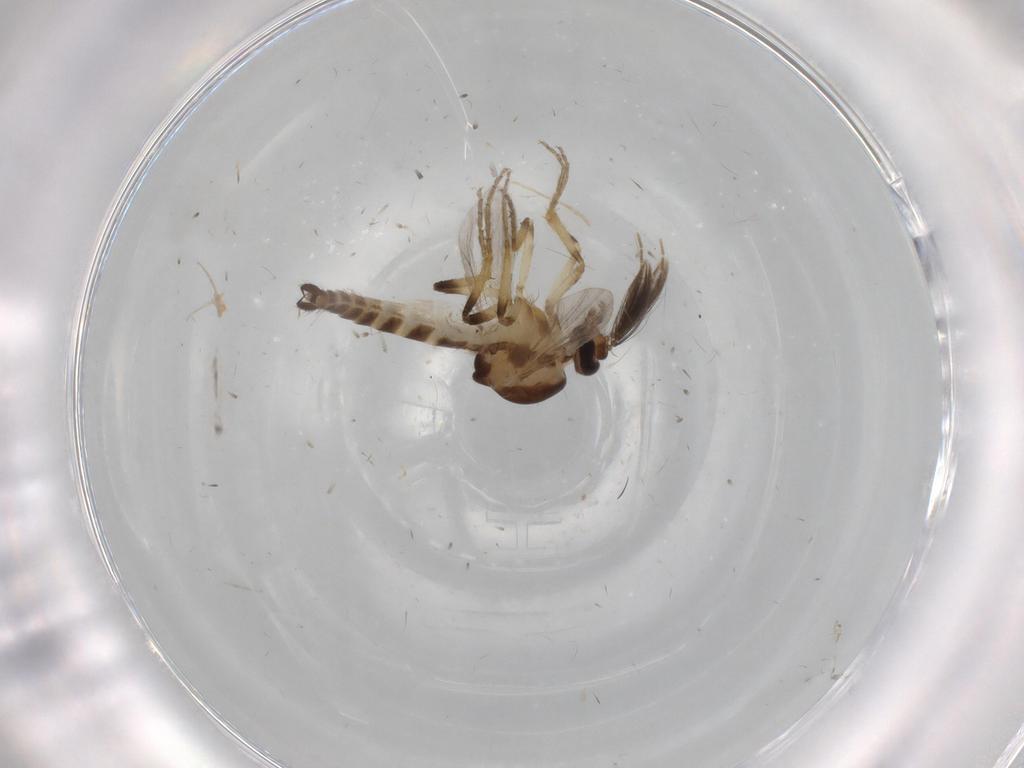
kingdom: Animalia
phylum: Arthropoda
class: Insecta
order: Diptera
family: Ceratopogonidae
